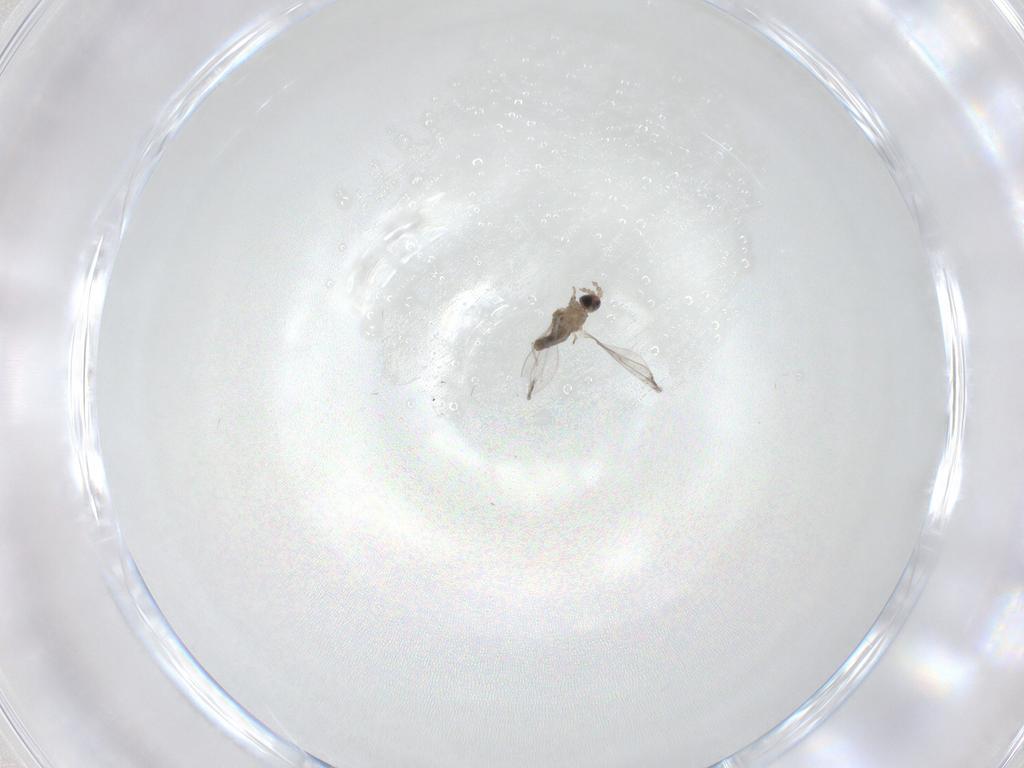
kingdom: Animalia
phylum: Arthropoda
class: Insecta
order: Diptera
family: Cecidomyiidae
